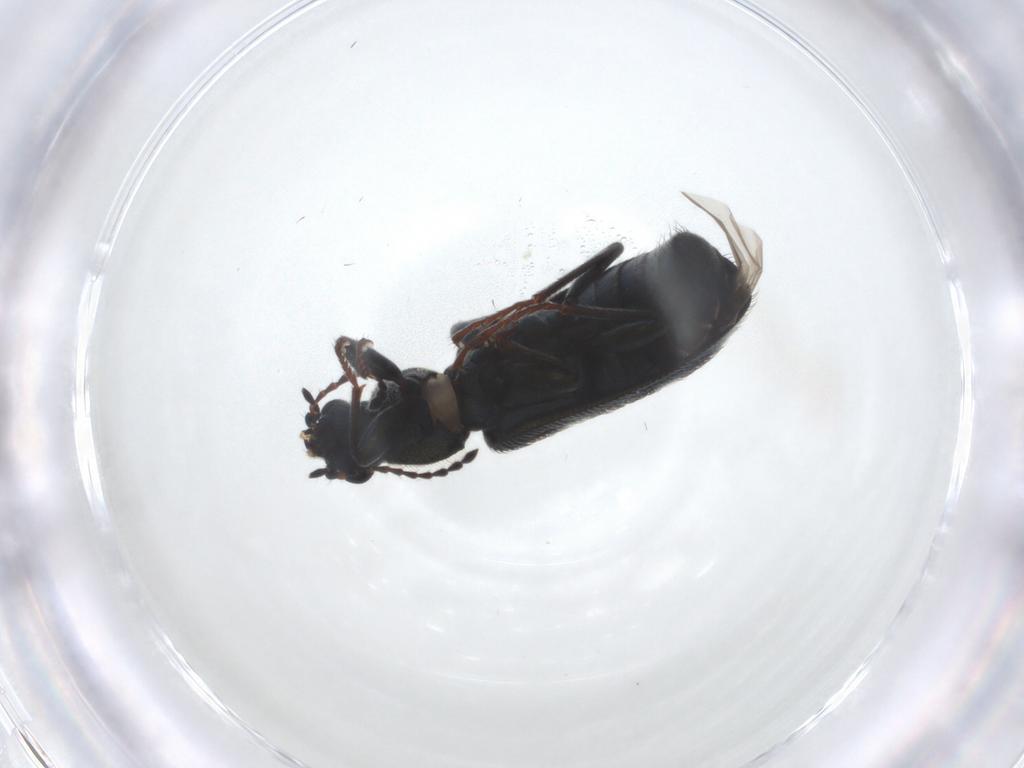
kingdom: Animalia
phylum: Arthropoda
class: Insecta
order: Coleoptera
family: Melyridae
